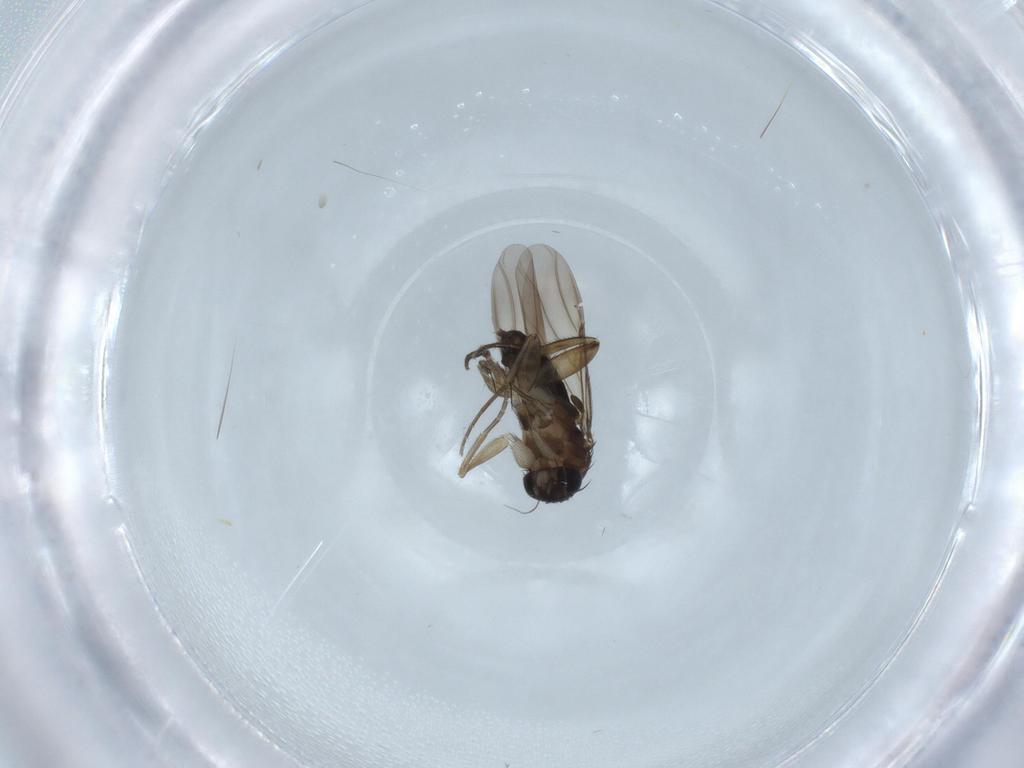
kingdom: Animalia
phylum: Arthropoda
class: Insecta
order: Diptera
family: Phoridae
